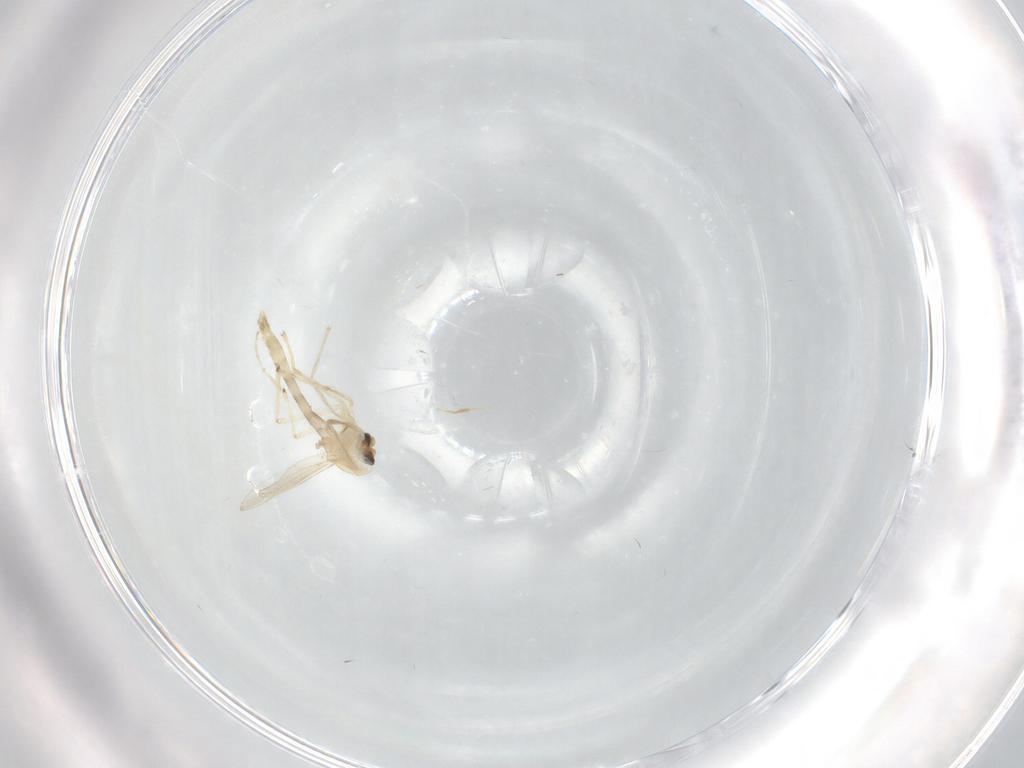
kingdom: Animalia
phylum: Arthropoda
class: Insecta
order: Diptera
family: Chironomidae
